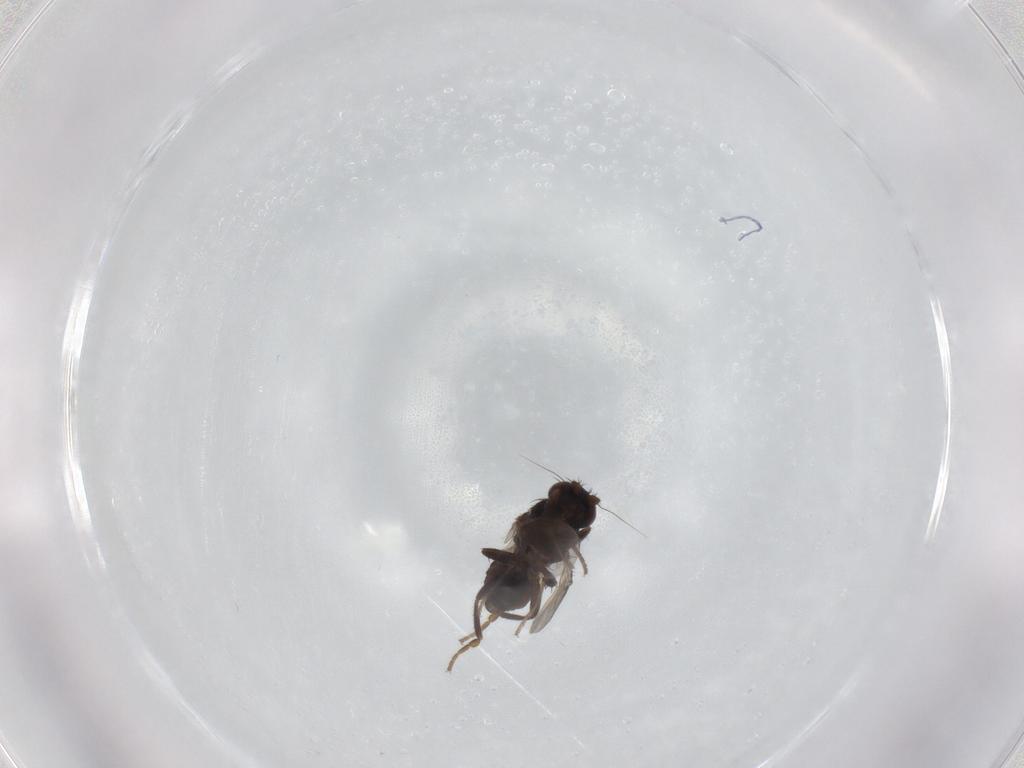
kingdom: Animalia
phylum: Arthropoda
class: Insecta
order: Diptera
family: Sphaeroceridae
